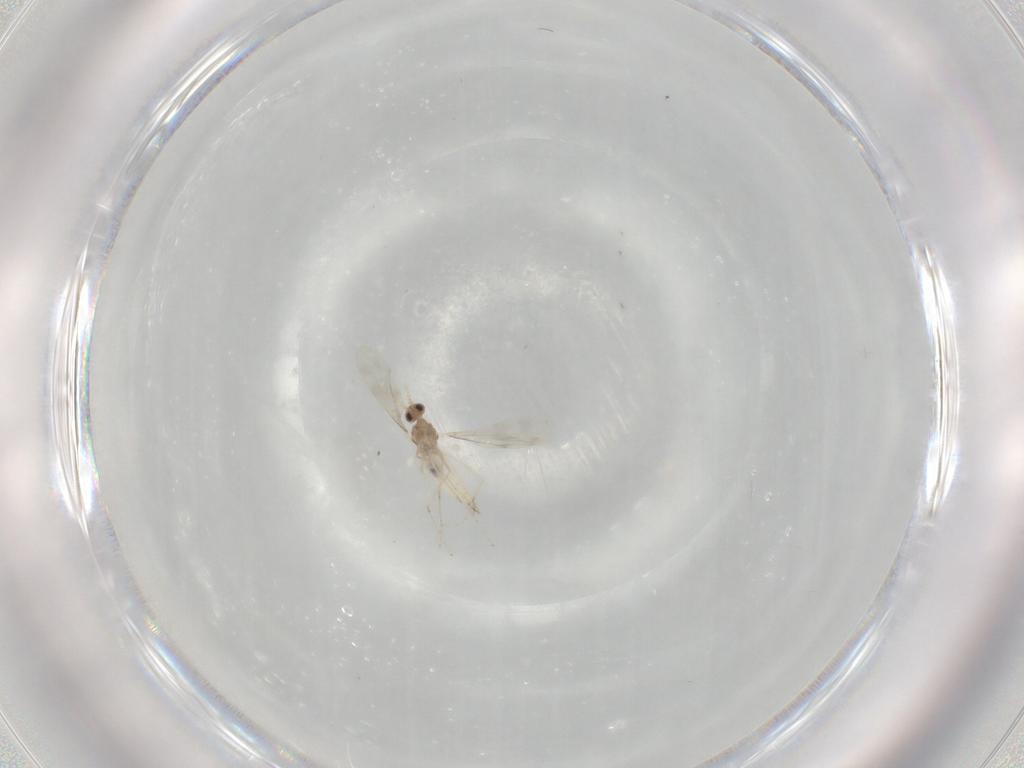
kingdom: Animalia
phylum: Arthropoda
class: Insecta
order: Diptera
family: Cecidomyiidae
